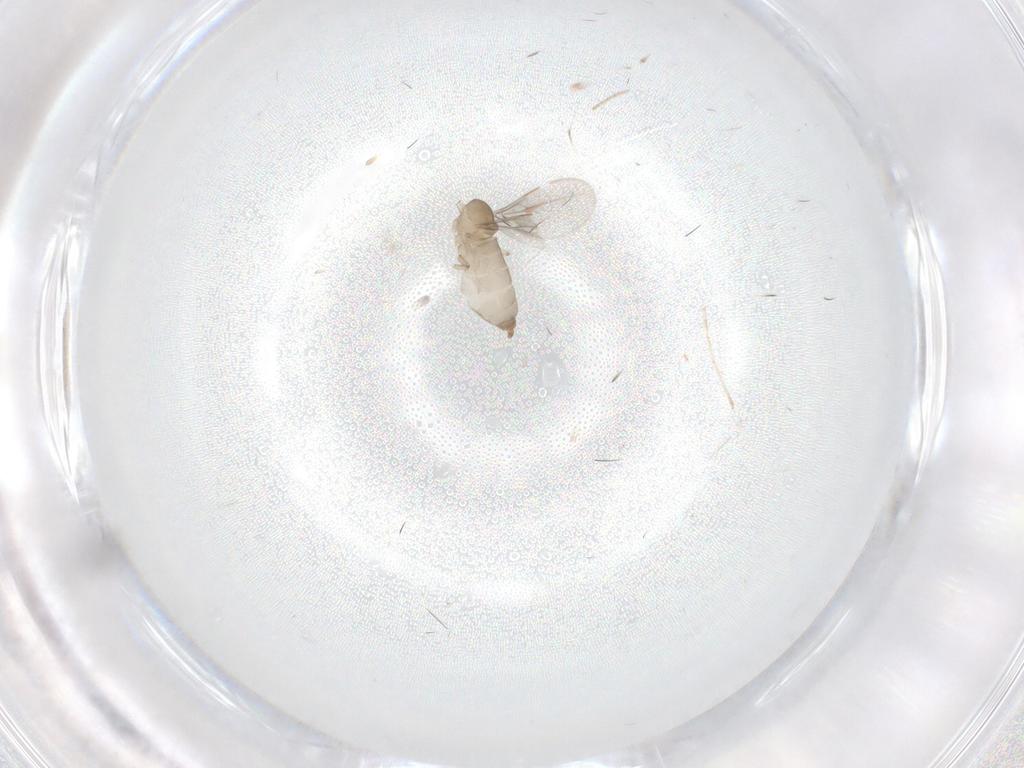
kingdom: Animalia
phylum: Arthropoda
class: Insecta
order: Diptera
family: Cecidomyiidae
